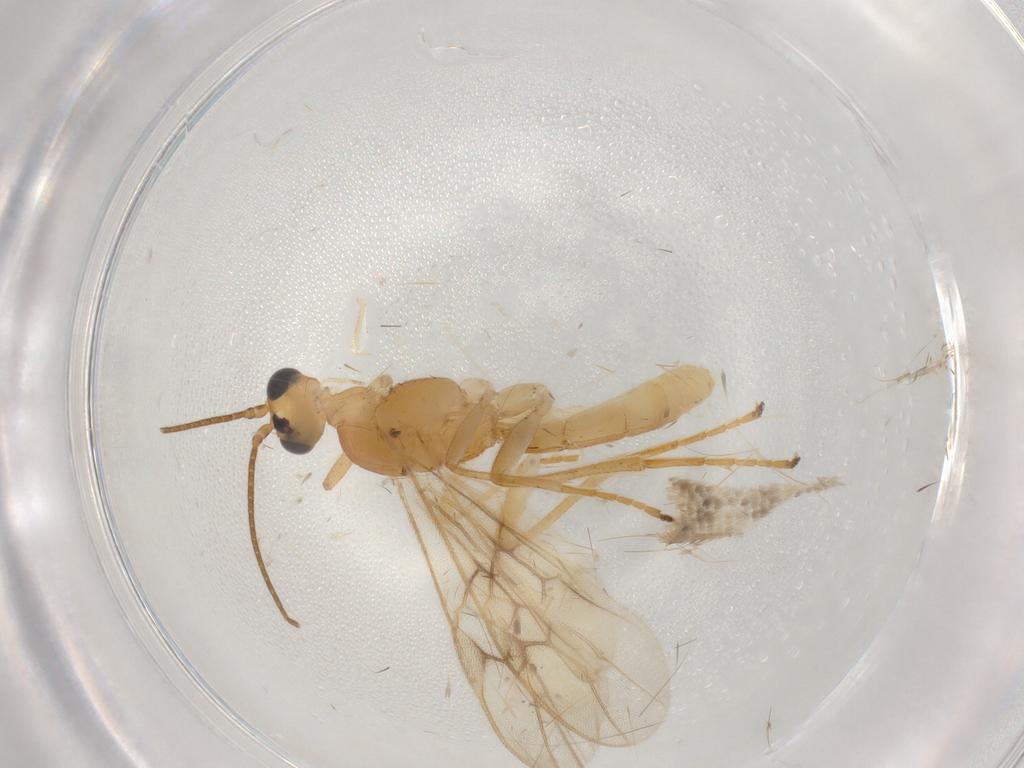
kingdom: Animalia
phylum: Arthropoda
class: Insecta
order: Hymenoptera
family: Braconidae
